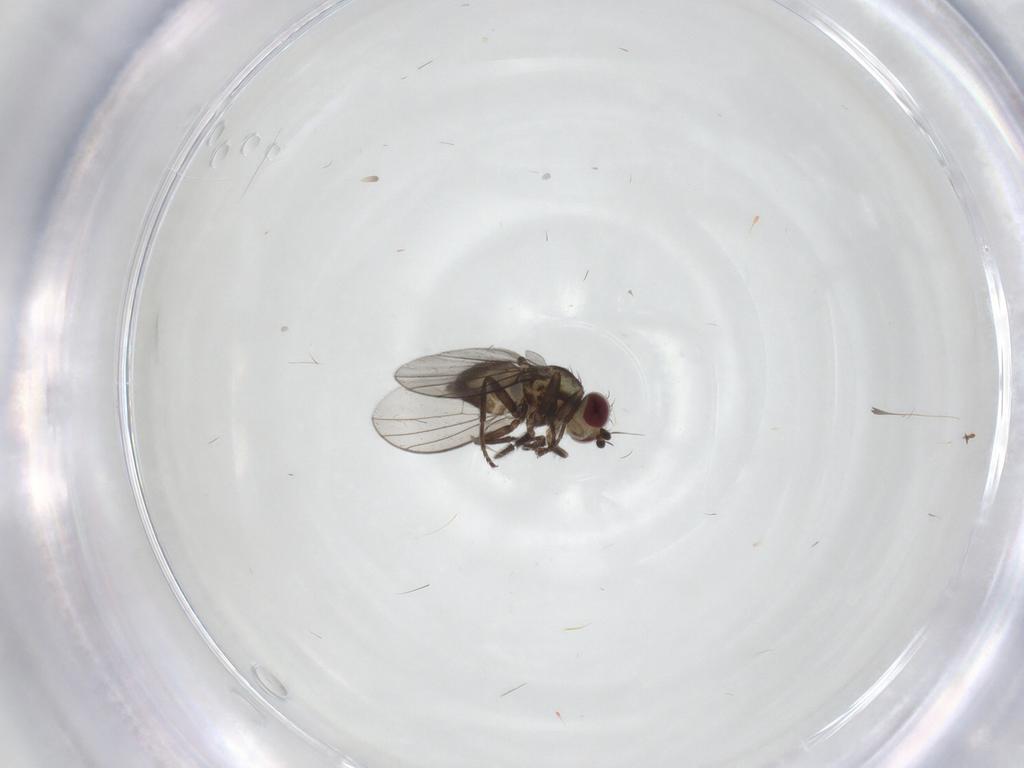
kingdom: Animalia
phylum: Arthropoda
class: Insecta
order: Diptera
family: Agromyzidae
